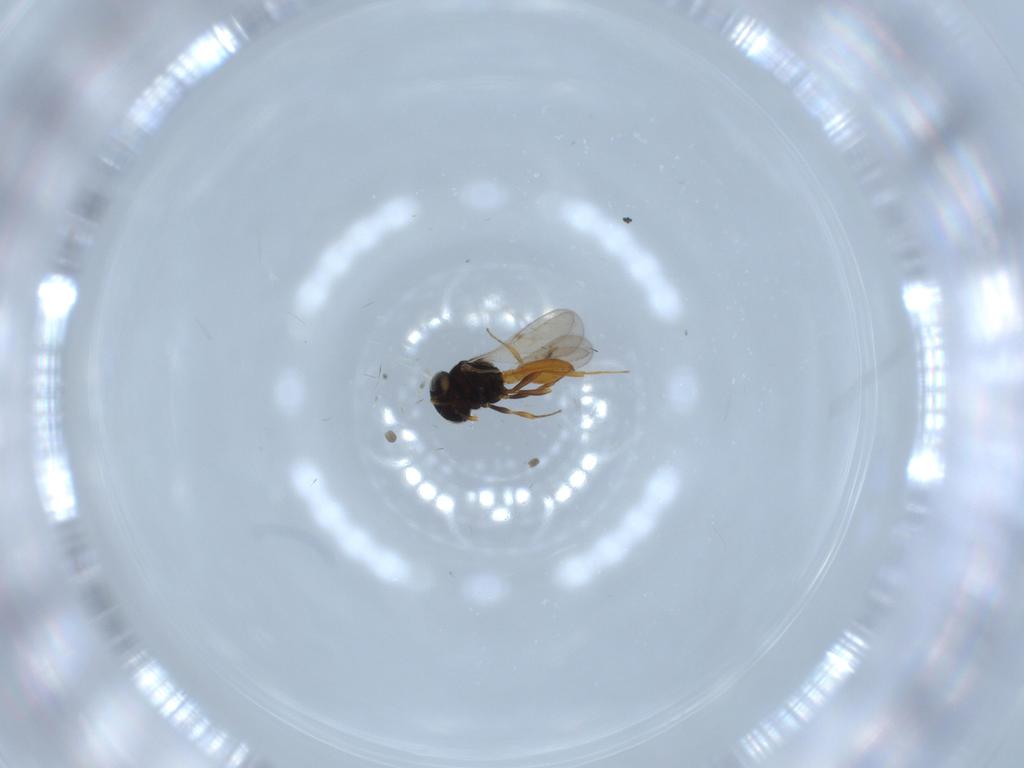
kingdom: Animalia
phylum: Arthropoda
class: Insecta
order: Hymenoptera
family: Scelionidae
